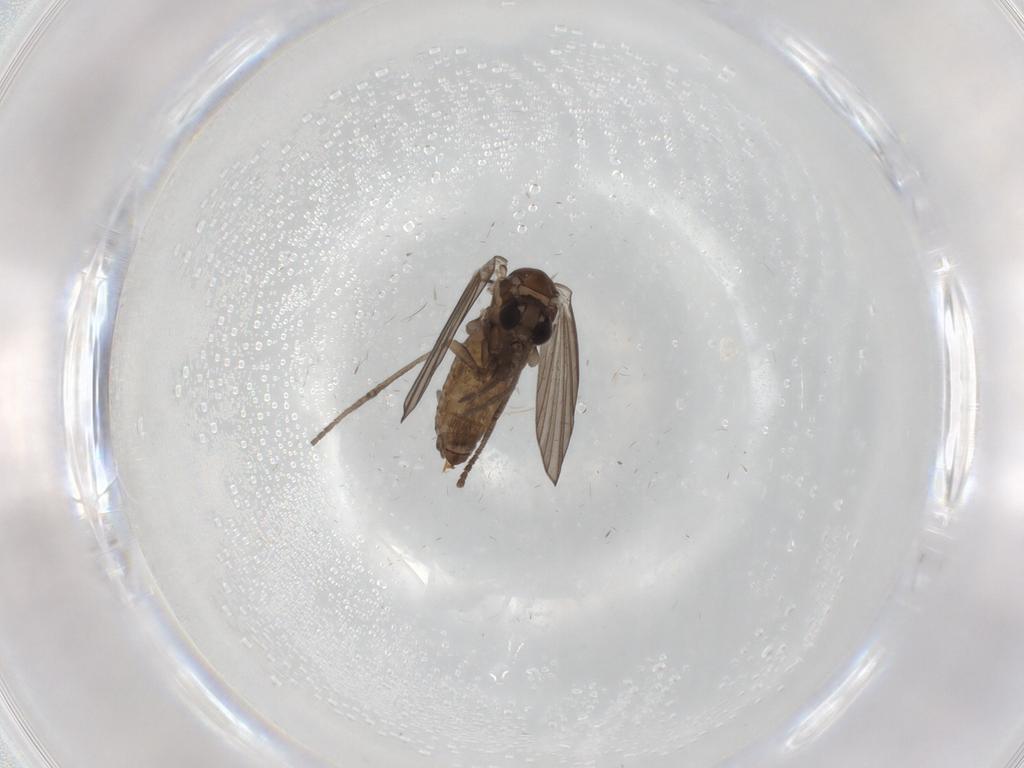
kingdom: Animalia
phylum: Arthropoda
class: Insecta
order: Diptera
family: Psychodidae
